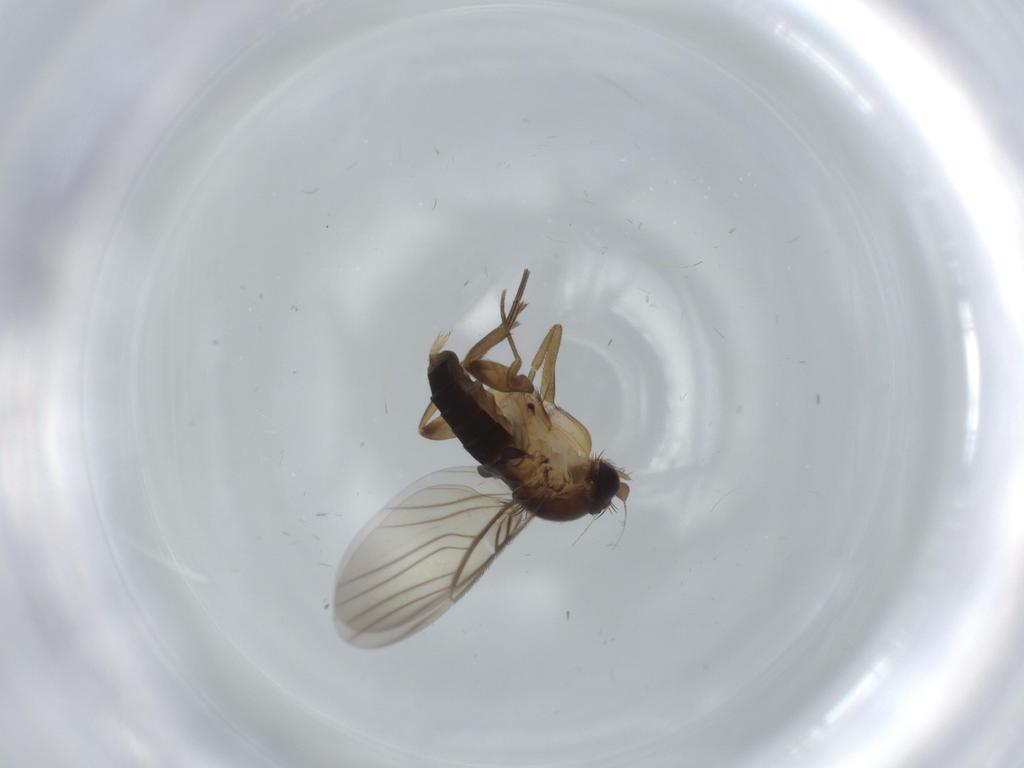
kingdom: Animalia
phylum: Arthropoda
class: Insecta
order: Diptera
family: Phoridae
